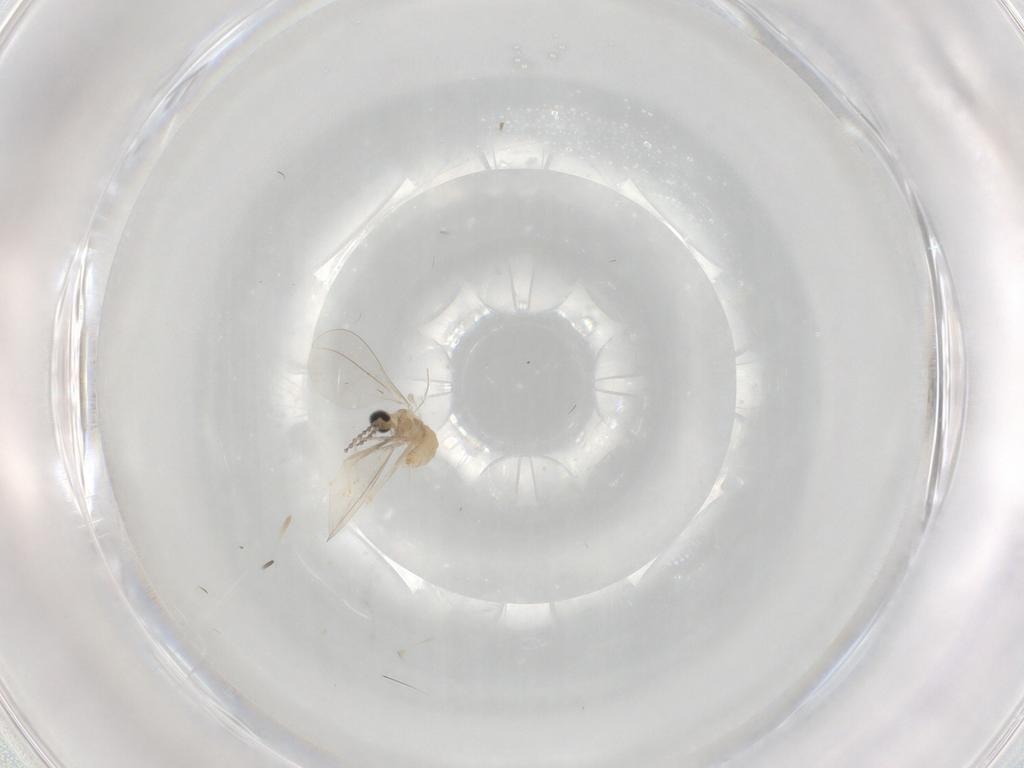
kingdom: Animalia
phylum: Arthropoda
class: Insecta
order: Diptera
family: Cecidomyiidae
